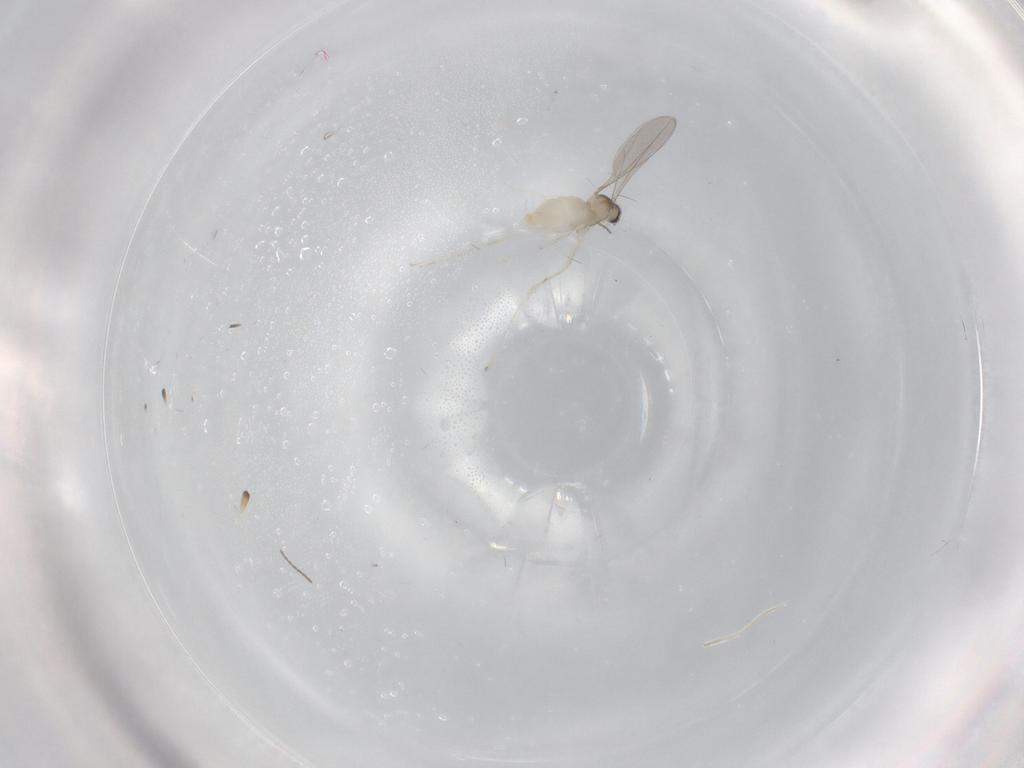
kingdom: Animalia
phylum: Arthropoda
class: Insecta
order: Diptera
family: Cecidomyiidae
